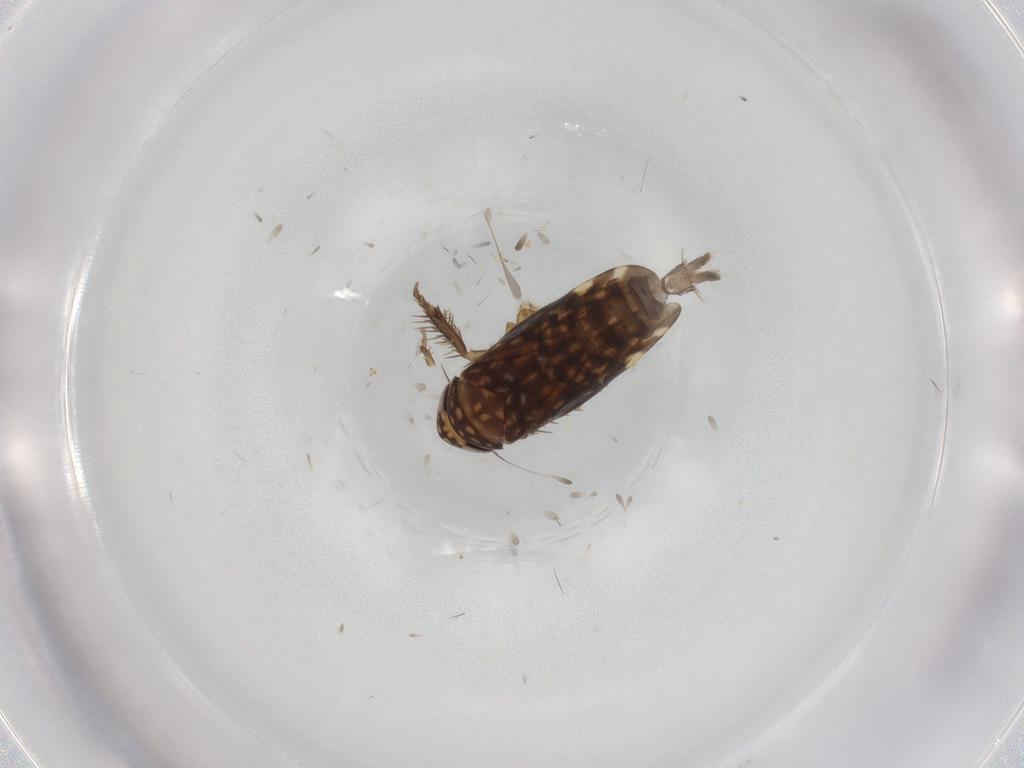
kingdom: Animalia
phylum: Arthropoda
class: Insecta
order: Hemiptera
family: Cicadellidae
